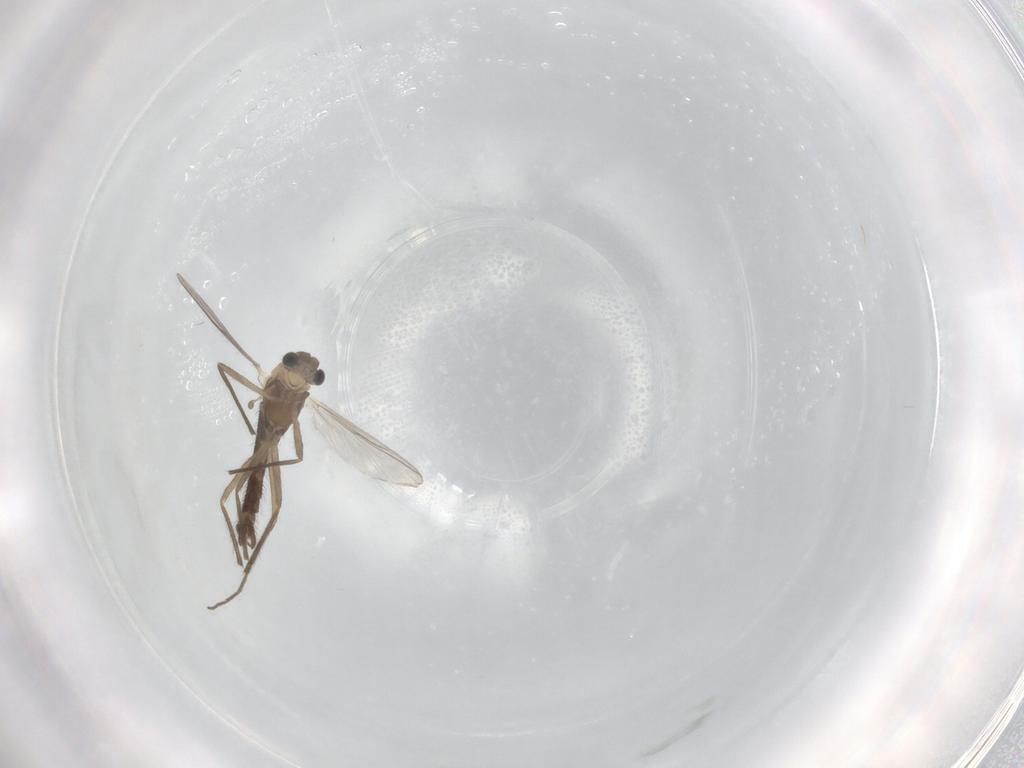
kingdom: Animalia
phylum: Arthropoda
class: Insecta
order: Diptera
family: Chironomidae
